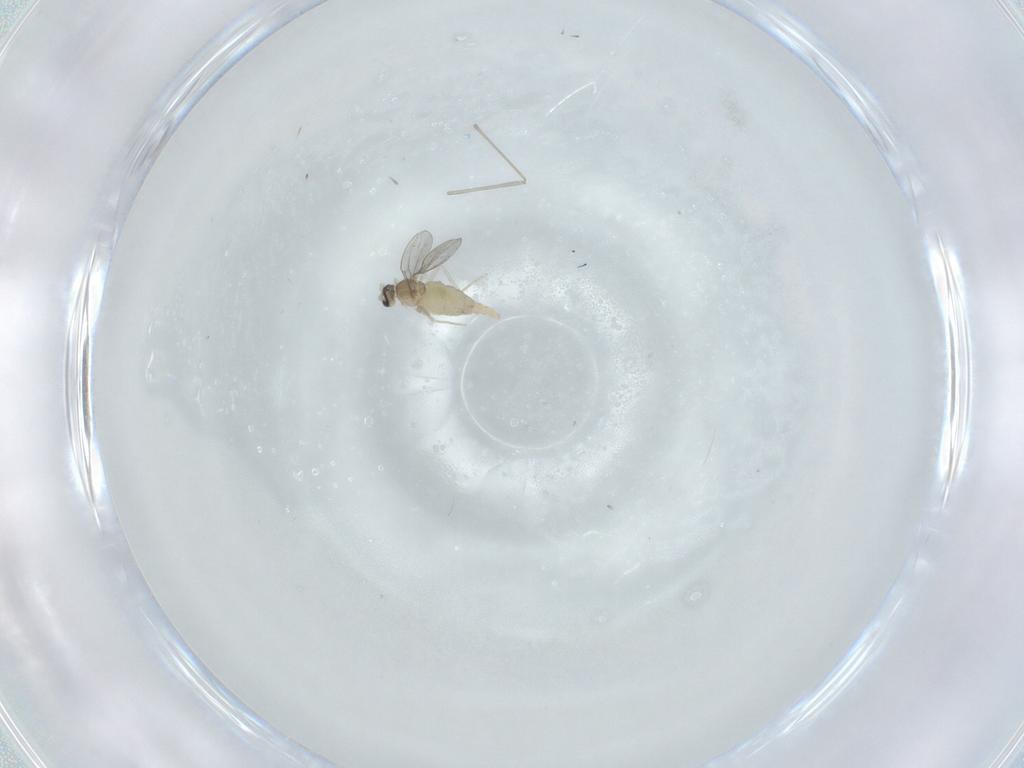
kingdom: Animalia
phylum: Arthropoda
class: Insecta
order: Diptera
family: Cecidomyiidae
